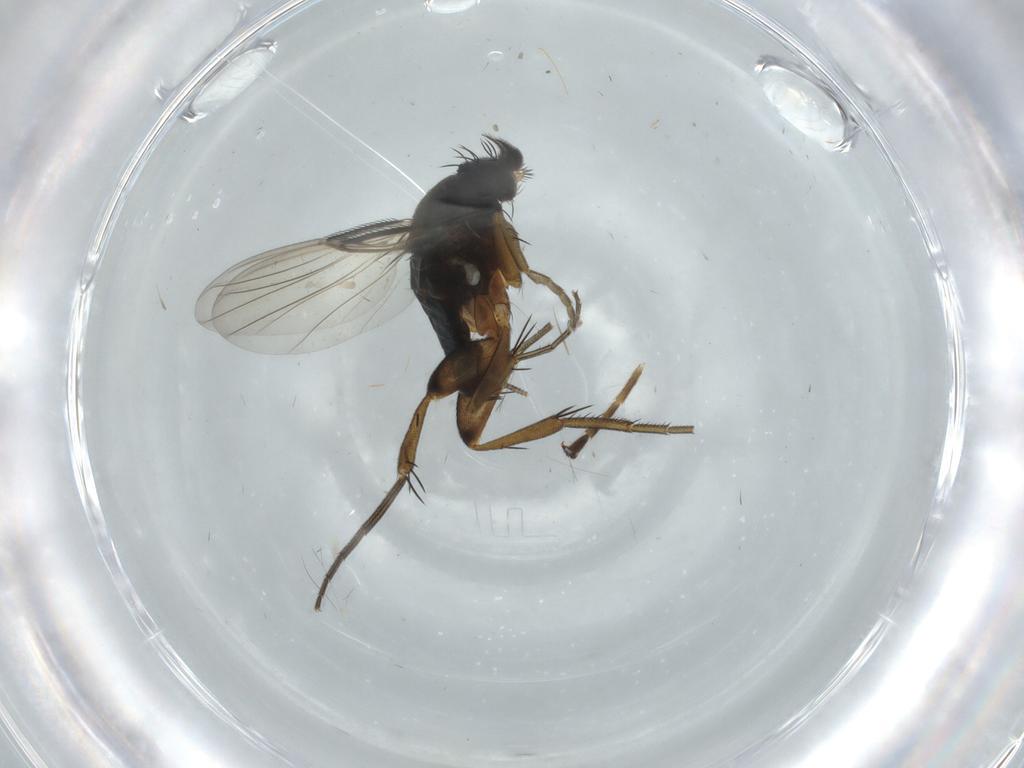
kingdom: Animalia
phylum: Arthropoda
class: Insecta
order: Diptera
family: Phoridae
